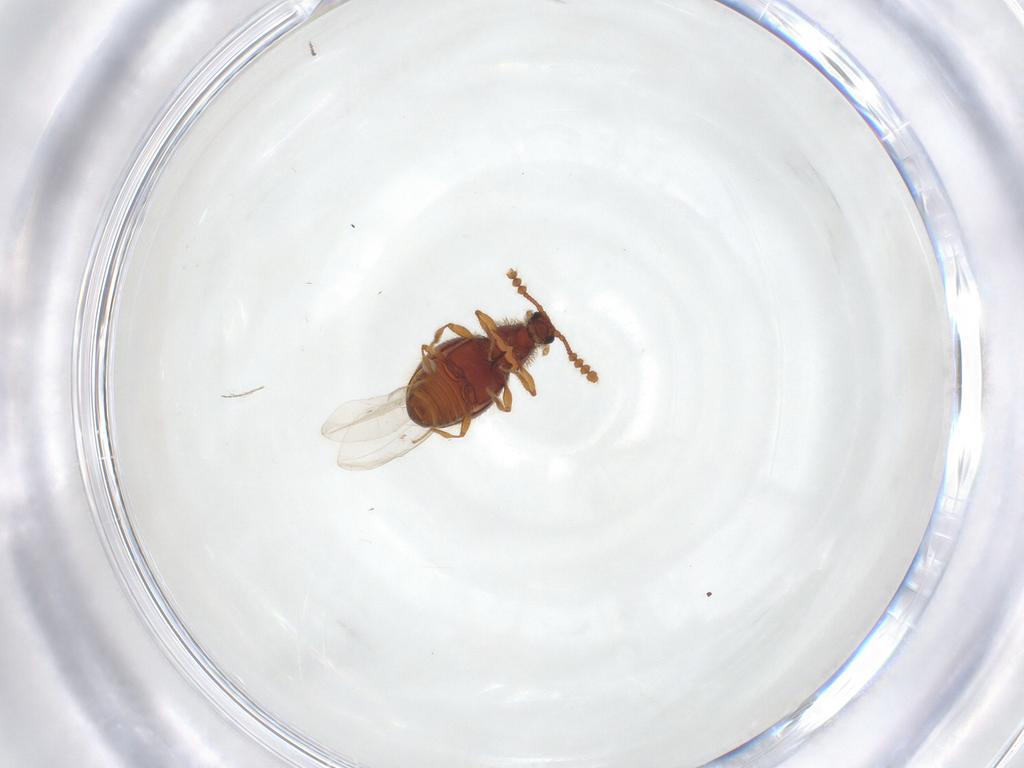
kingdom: Animalia
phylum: Arthropoda
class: Insecta
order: Coleoptera
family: Staphylinidae
